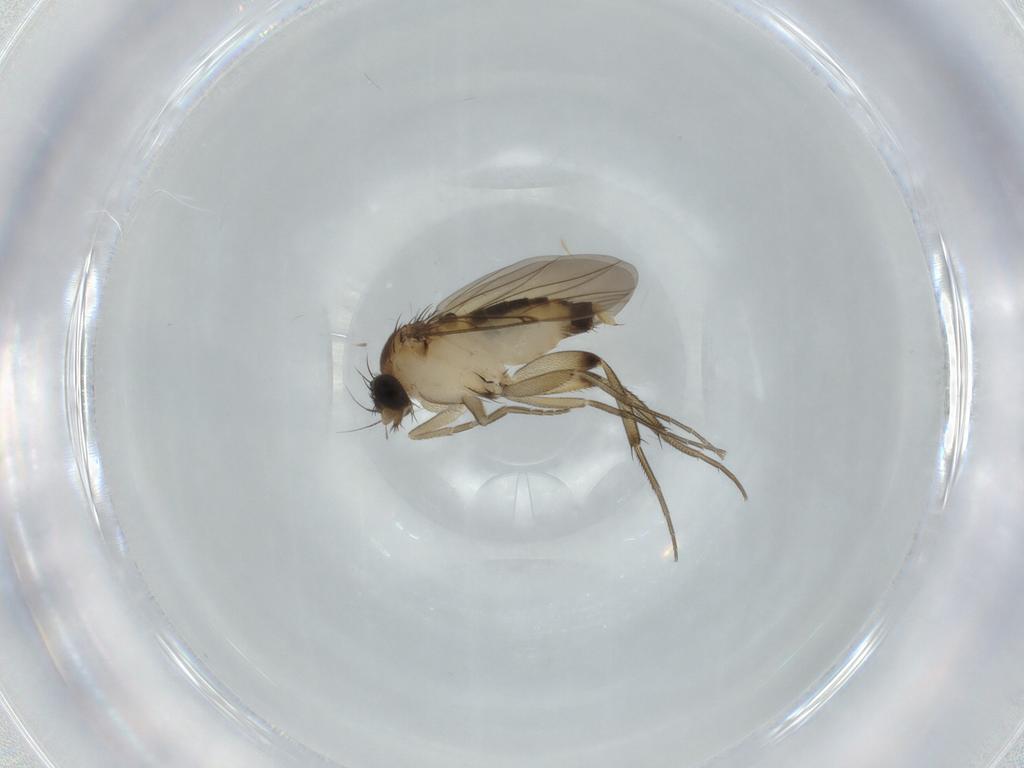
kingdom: Animalia
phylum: Arthropoda
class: Insecta
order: Diptera
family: Phoridae
